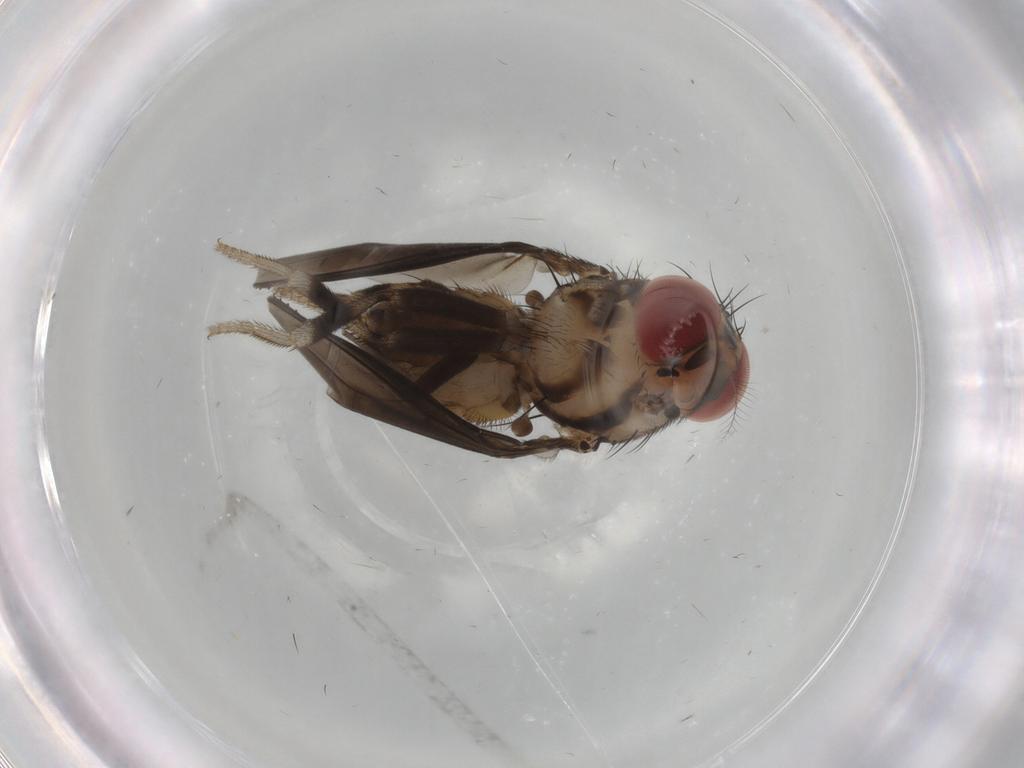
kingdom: Animalia
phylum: Arthropoda
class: Insecta
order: Diptera
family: Drosophilidae
